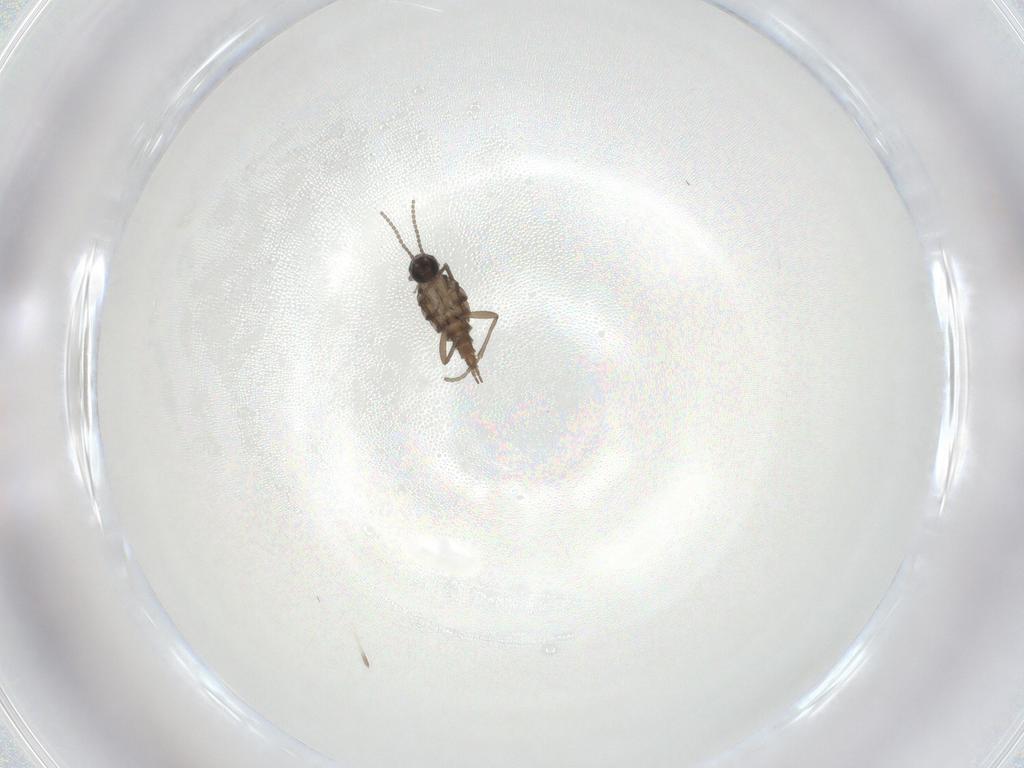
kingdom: Animalia
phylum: Arthropoda
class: Insecta
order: Diptera
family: Sciaridae
